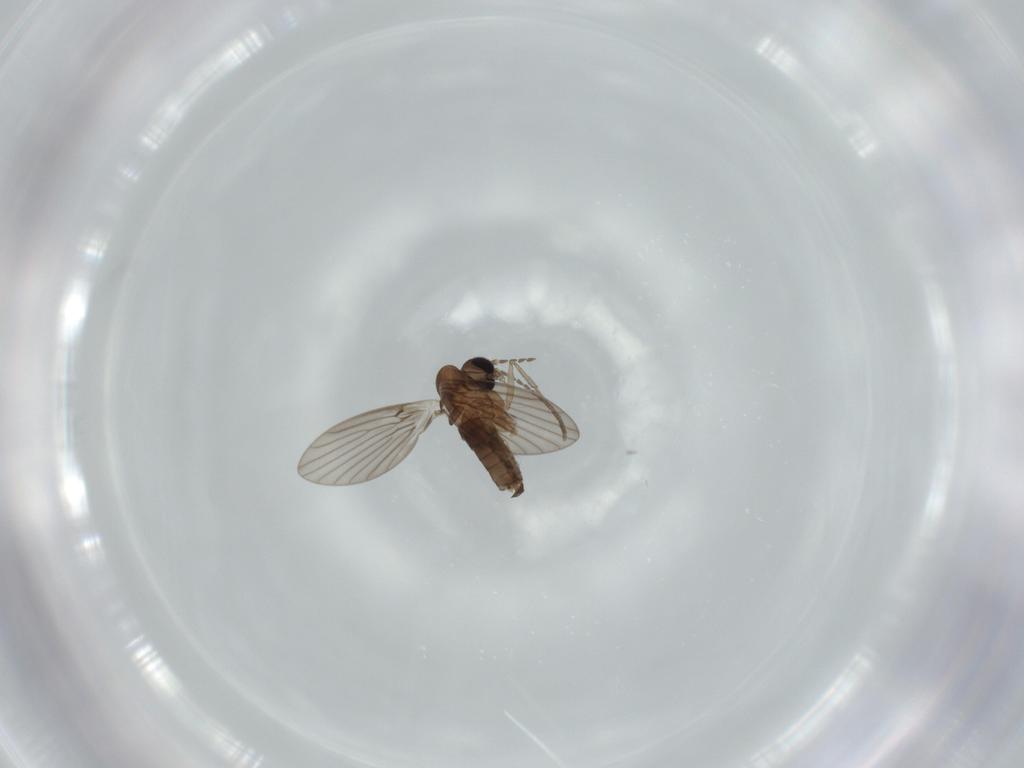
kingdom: Animalia
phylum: Arthropoda
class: Insecta
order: Diptera
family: Psychodidae
